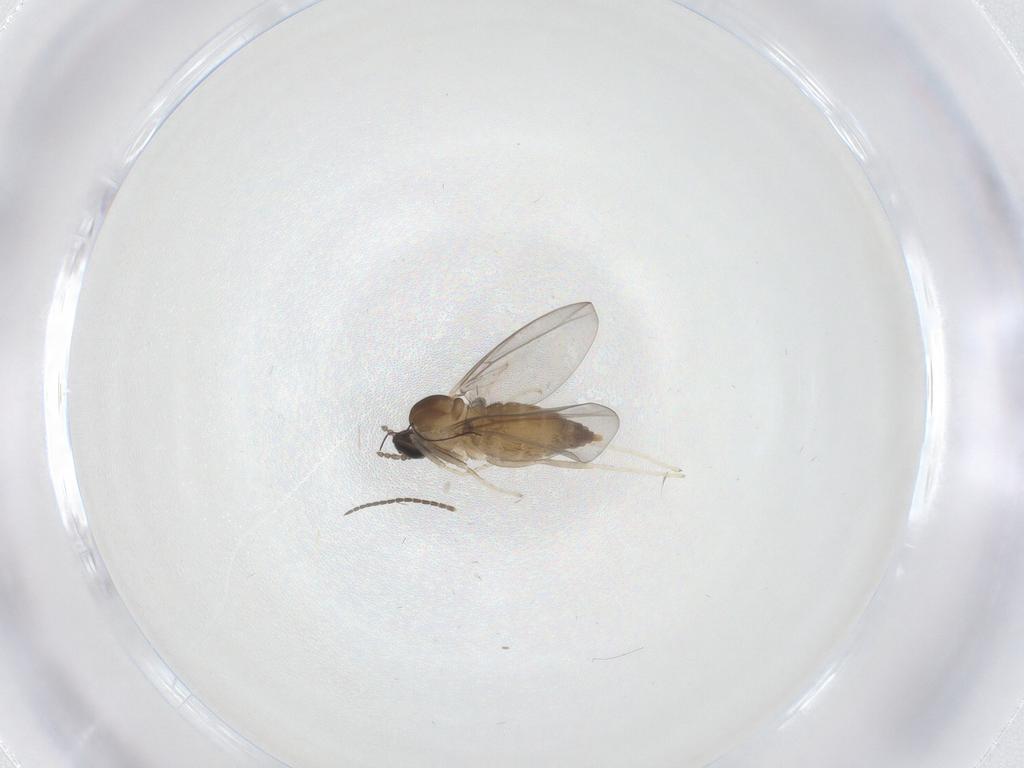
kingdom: Animalia
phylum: Arthropoda
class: Insecta
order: Diptera
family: Cecidomyiidae
